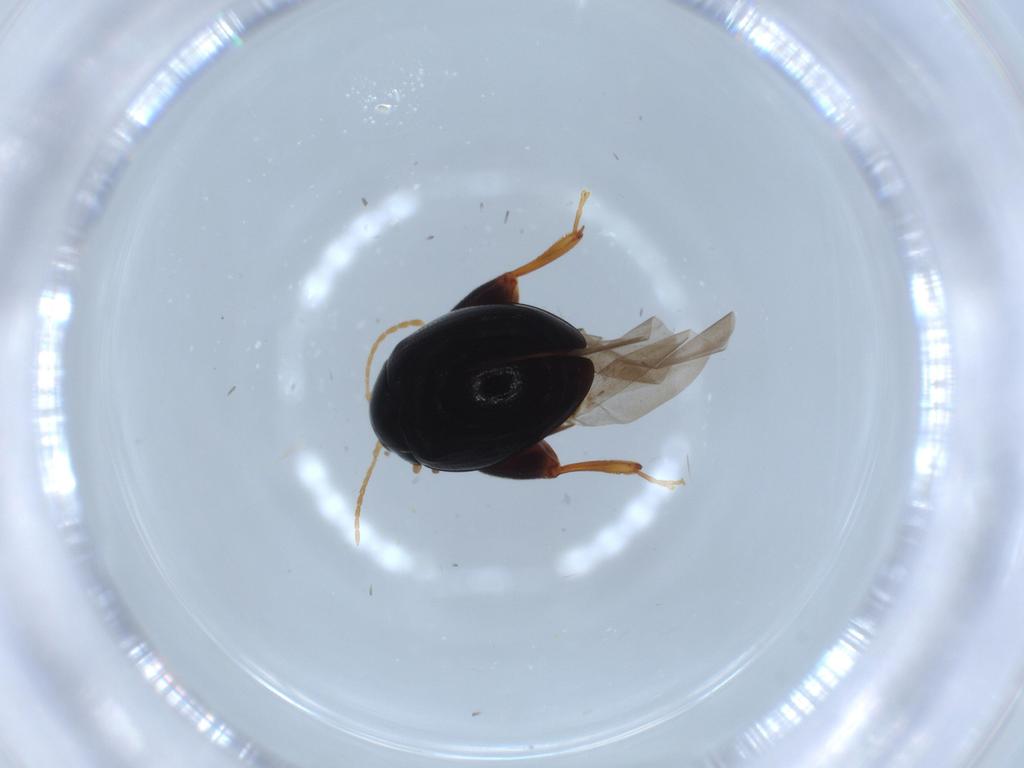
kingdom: Animalia
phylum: Arthropoda
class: Insecta
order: Coleoptera
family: Chrysomelidae
